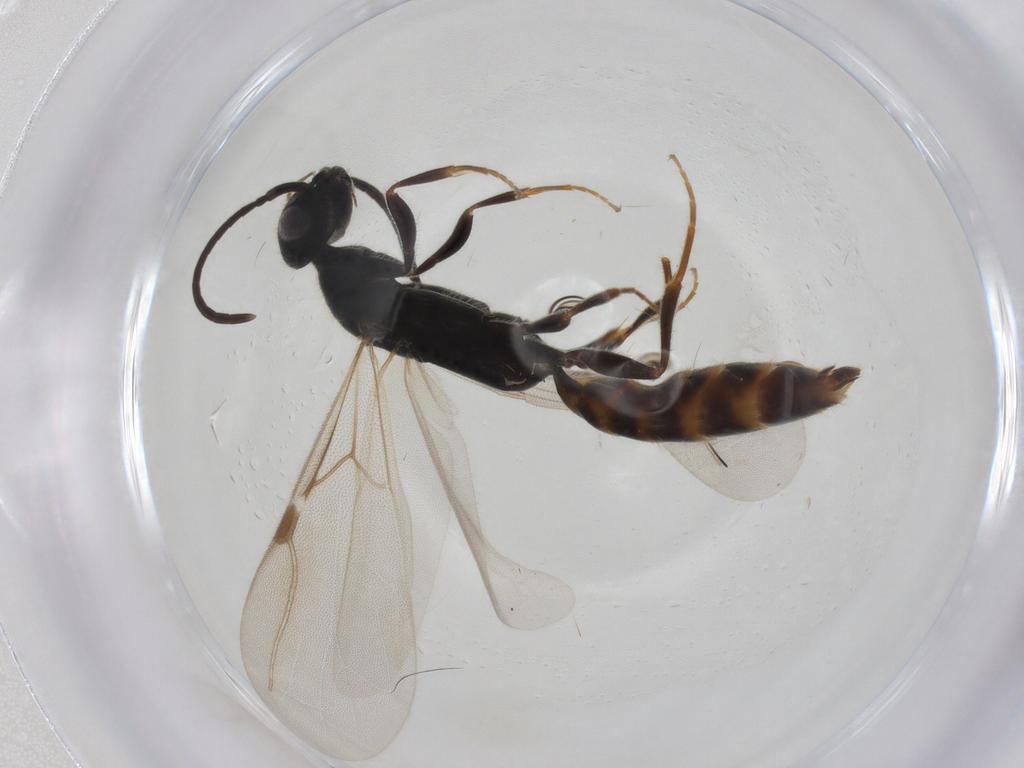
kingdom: Animalia
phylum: Arthropoda
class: Insecta
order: Hymenoptera
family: Bethylidae
